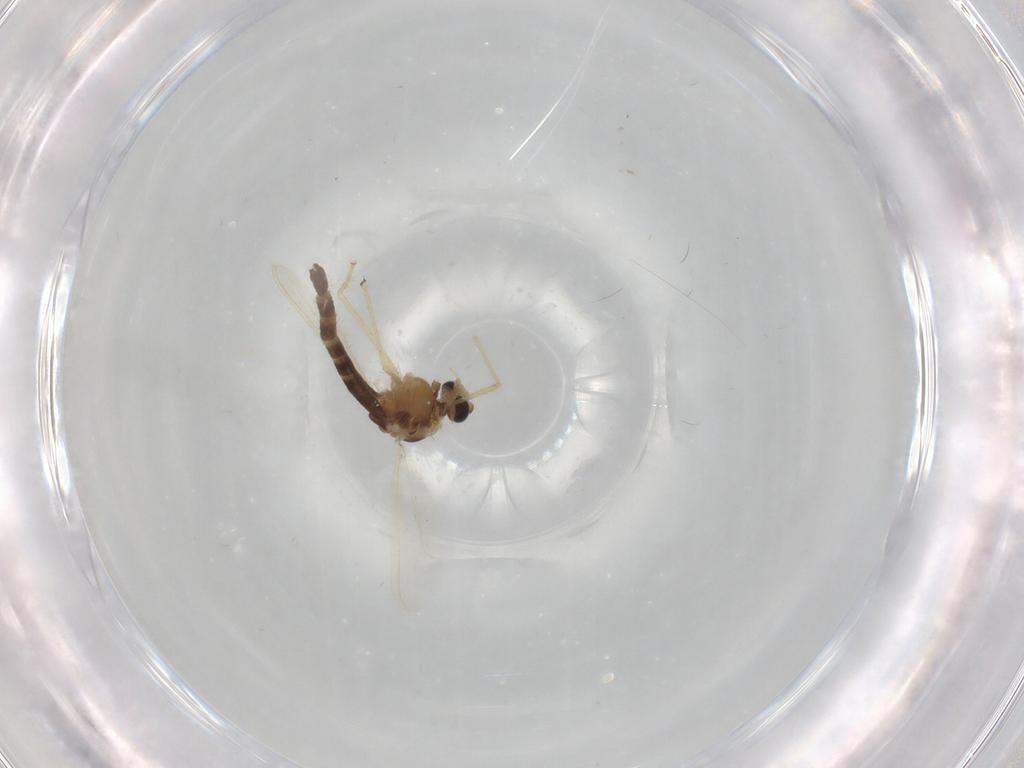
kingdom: Animalia
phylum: Arthropoda
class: Insecta
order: Diptera
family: Chironomidae
